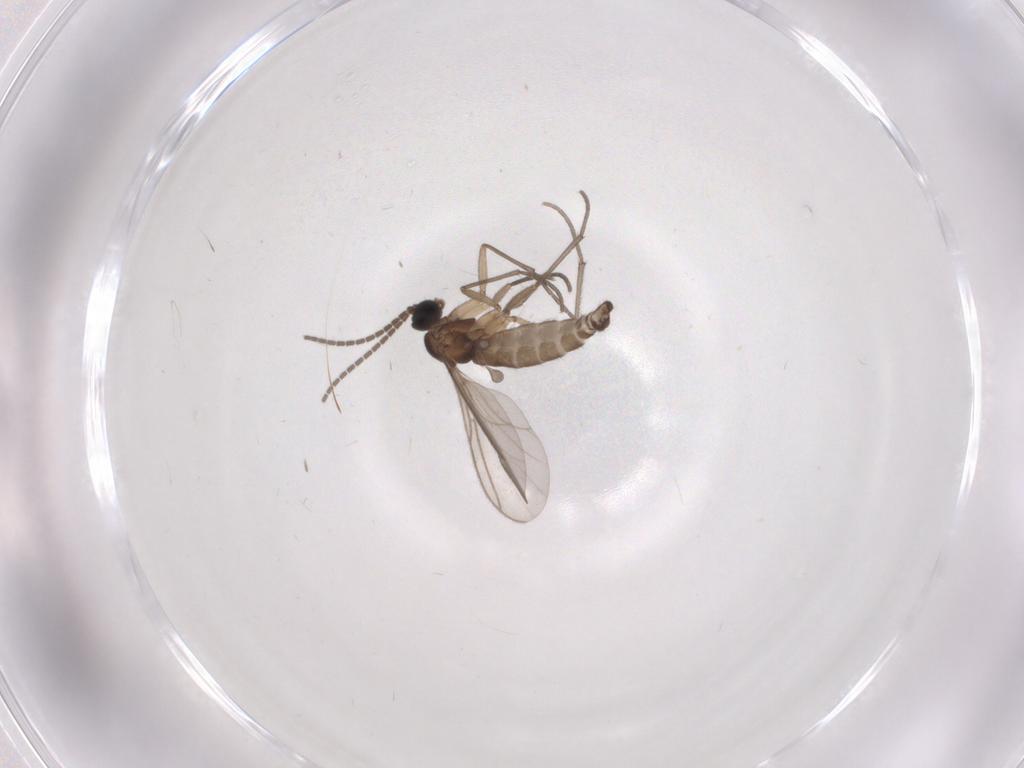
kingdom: Animalia
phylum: Arthropoda
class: Insecta
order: Diptera
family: Sciaridae
